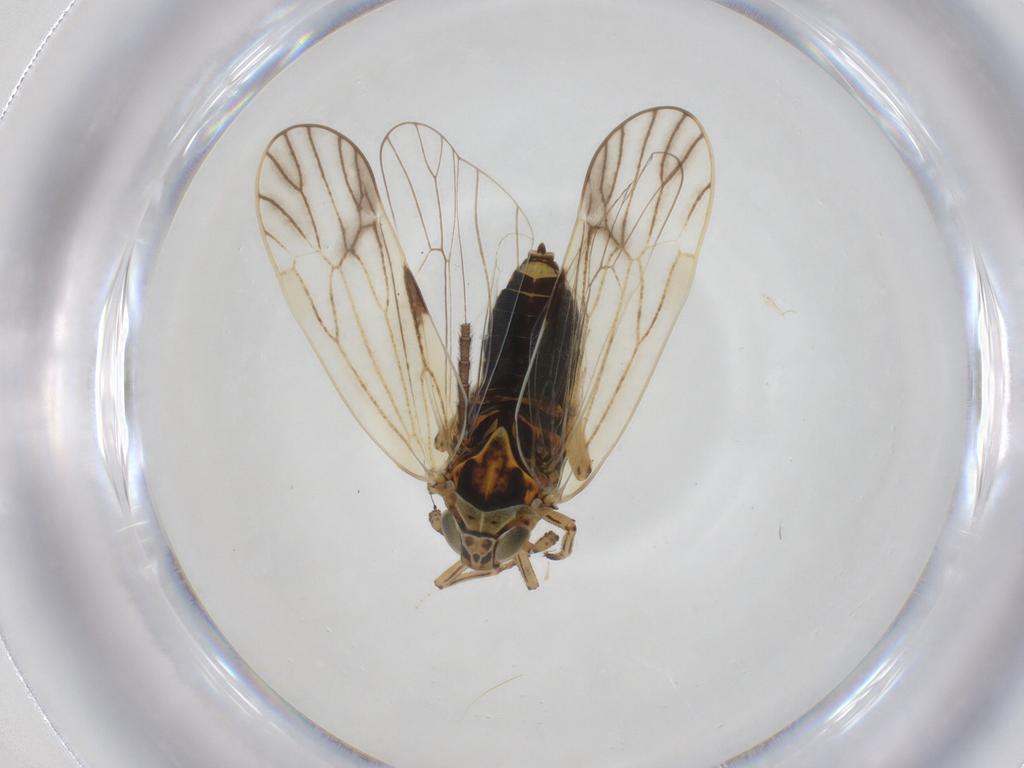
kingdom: Animalia
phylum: Arthropoda
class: Insecta
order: Hemiptera
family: Delphacidae
